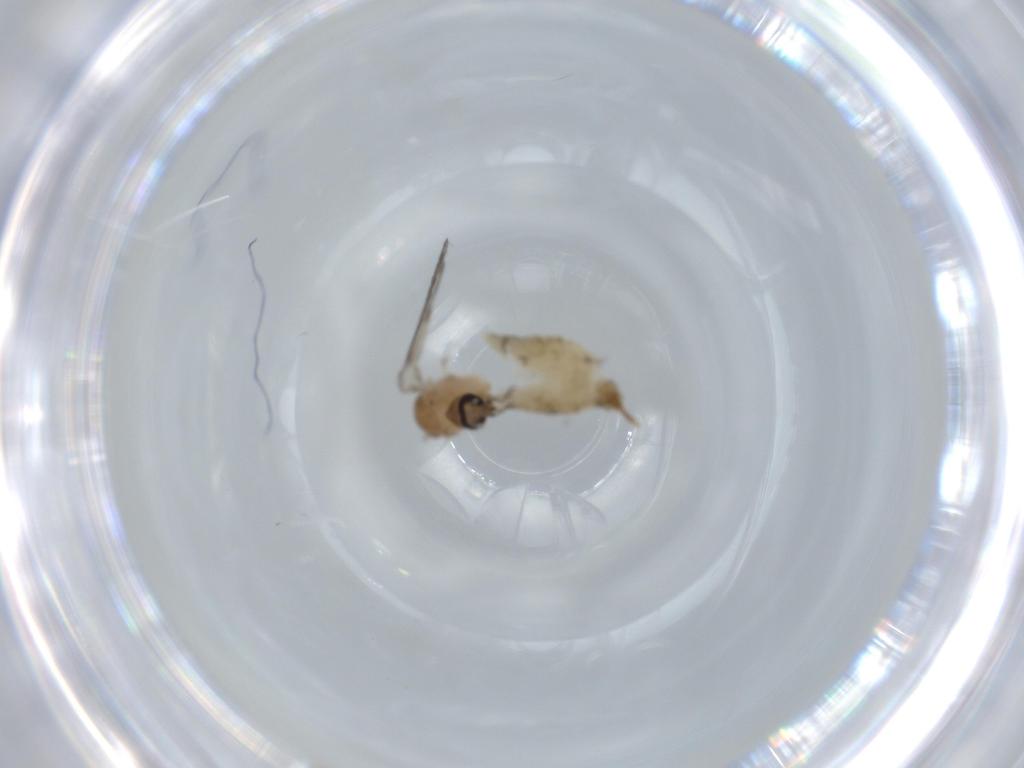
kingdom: Animalia
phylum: Arthropoda
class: Insecta
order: Diptera
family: Psychodidae
